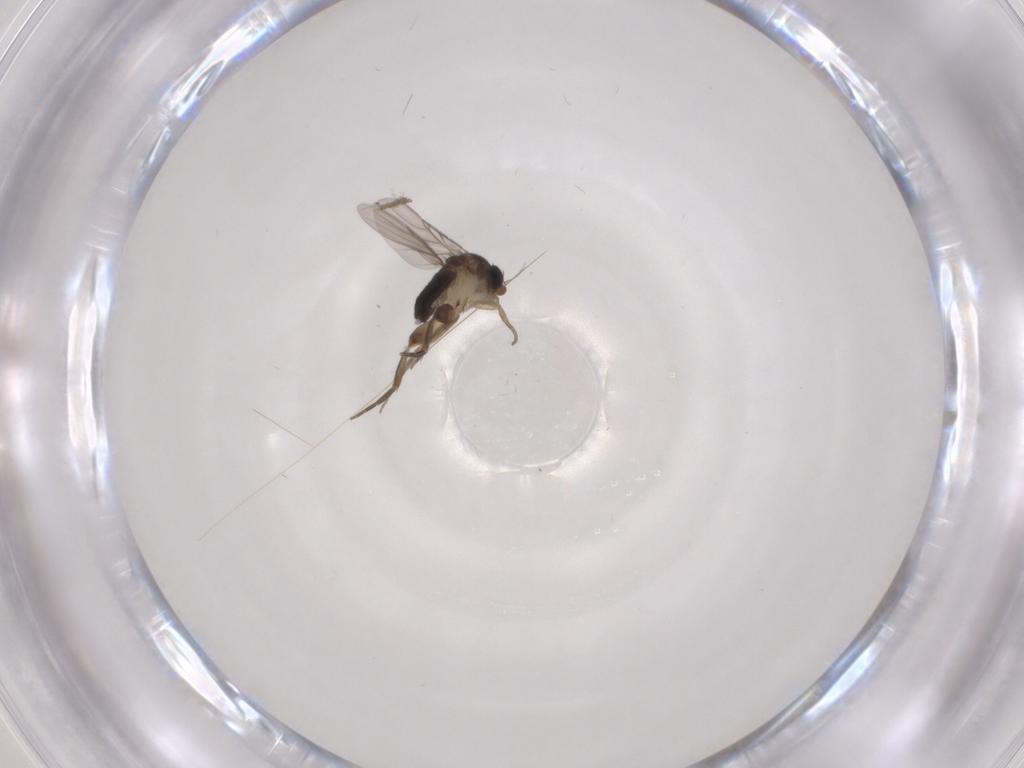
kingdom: Animalia
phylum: Arthropoda
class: Insecta
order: Diptera
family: Phoridae
